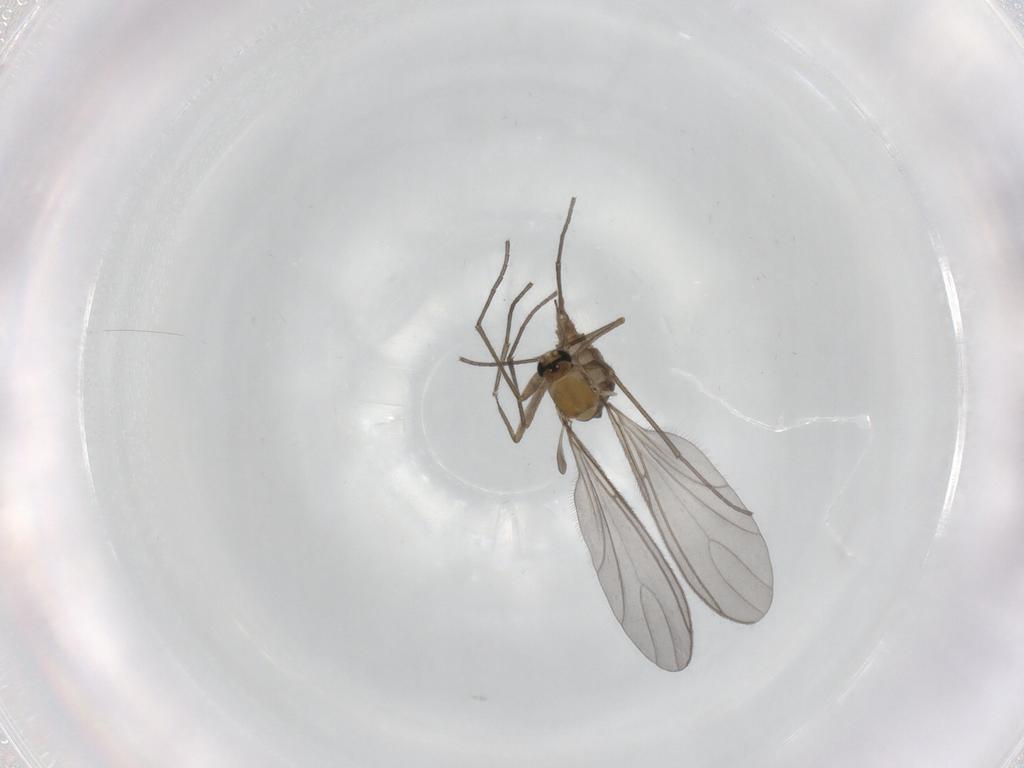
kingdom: Animalia
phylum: Arthropoda
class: Insecta
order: Diptera
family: Sciaridae
